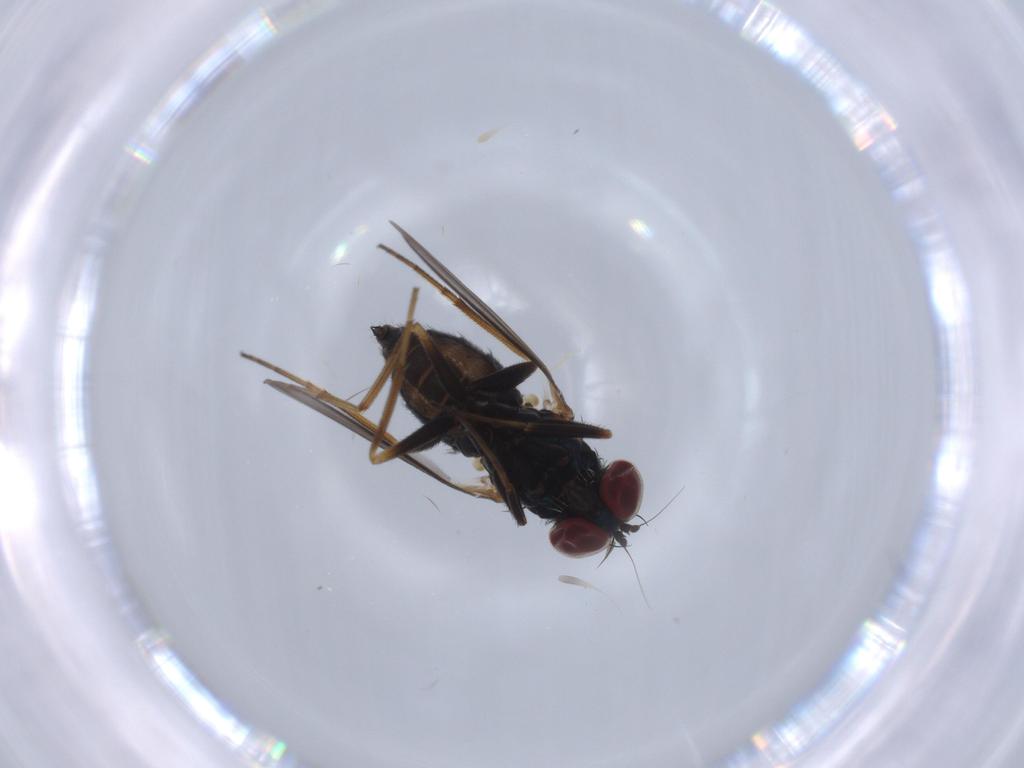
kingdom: Animalia
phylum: Arthropoda
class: Insecta
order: Diptera
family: Dolichopodidae
